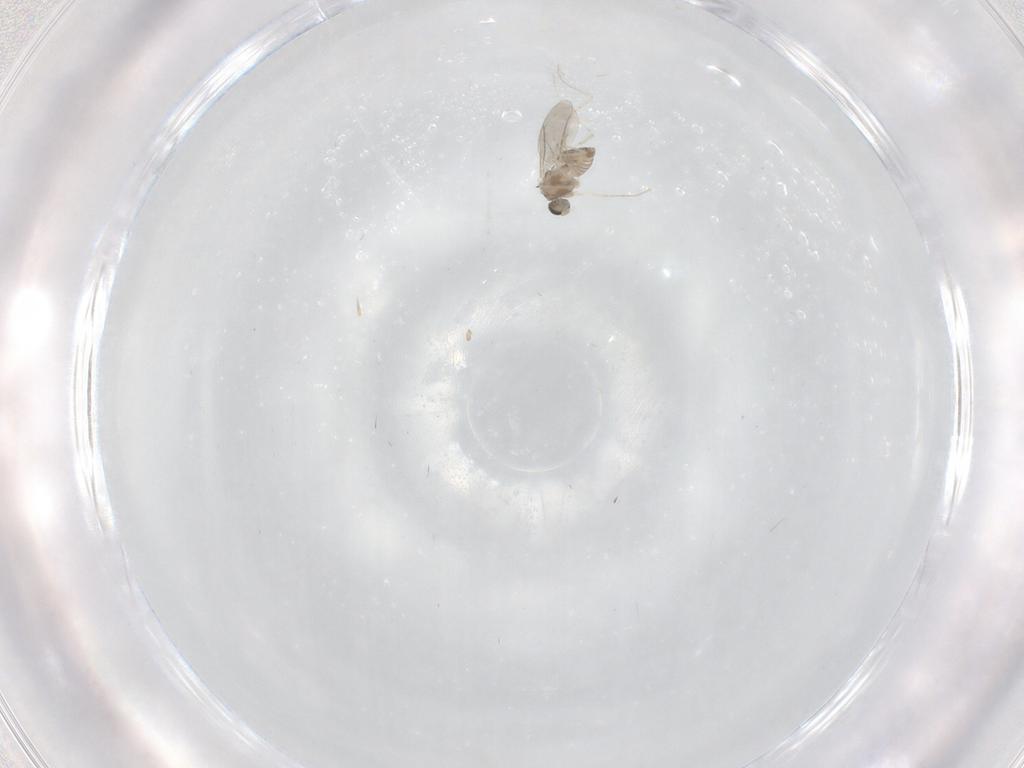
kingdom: Animalia
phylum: Arthropoda
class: Insecta
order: Diptera
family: Cecidomyiidae
